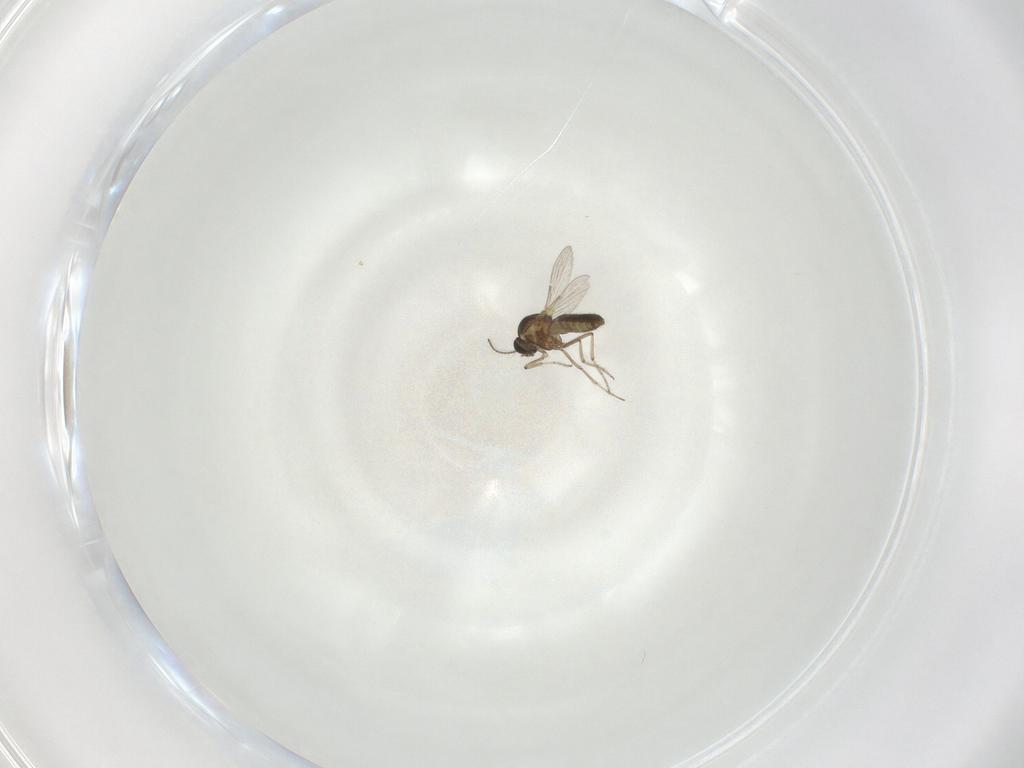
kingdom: Animalia
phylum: Arthropoda
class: Insecta
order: Diptera
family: Ceratopogonidae
